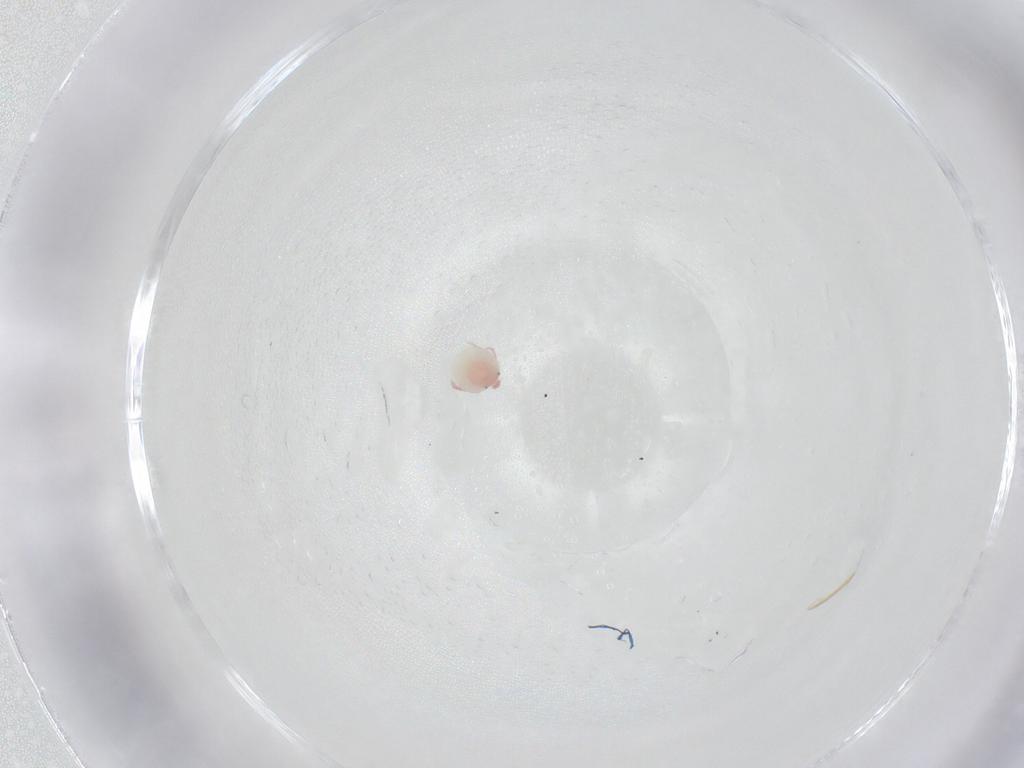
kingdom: Animalia
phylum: Arthropoda
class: Arachnida
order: Trombidiformes
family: Pionidae
